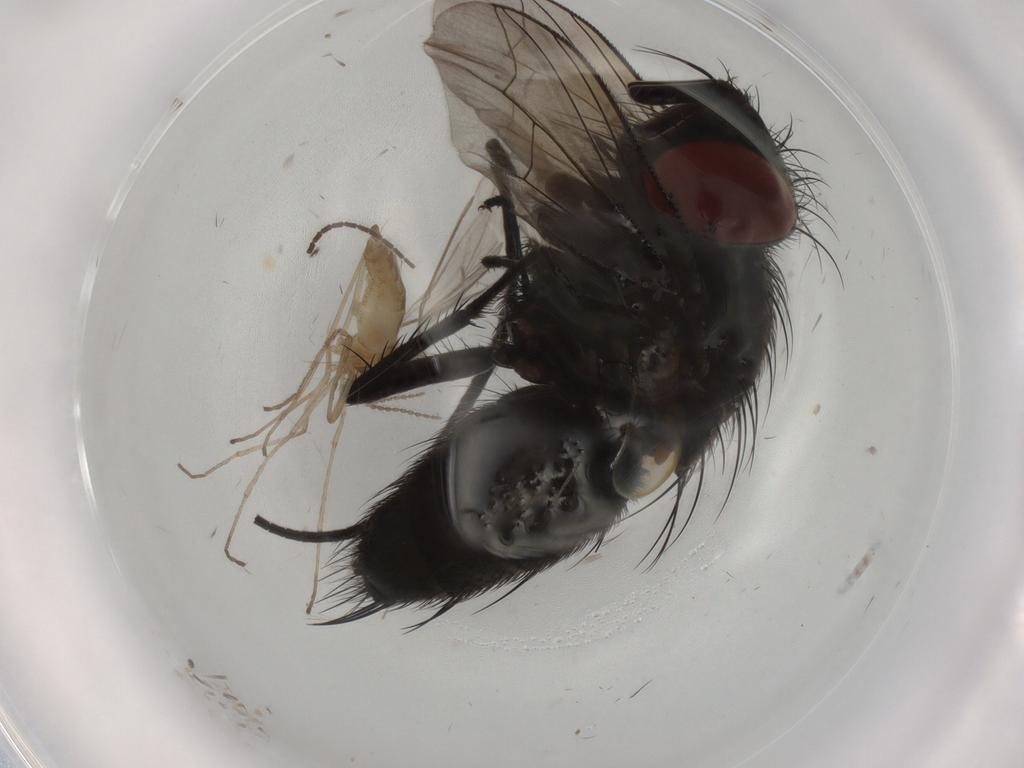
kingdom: Animalia
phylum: Arthropoda
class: Insecta
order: Diptera
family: Sarcophagidae
